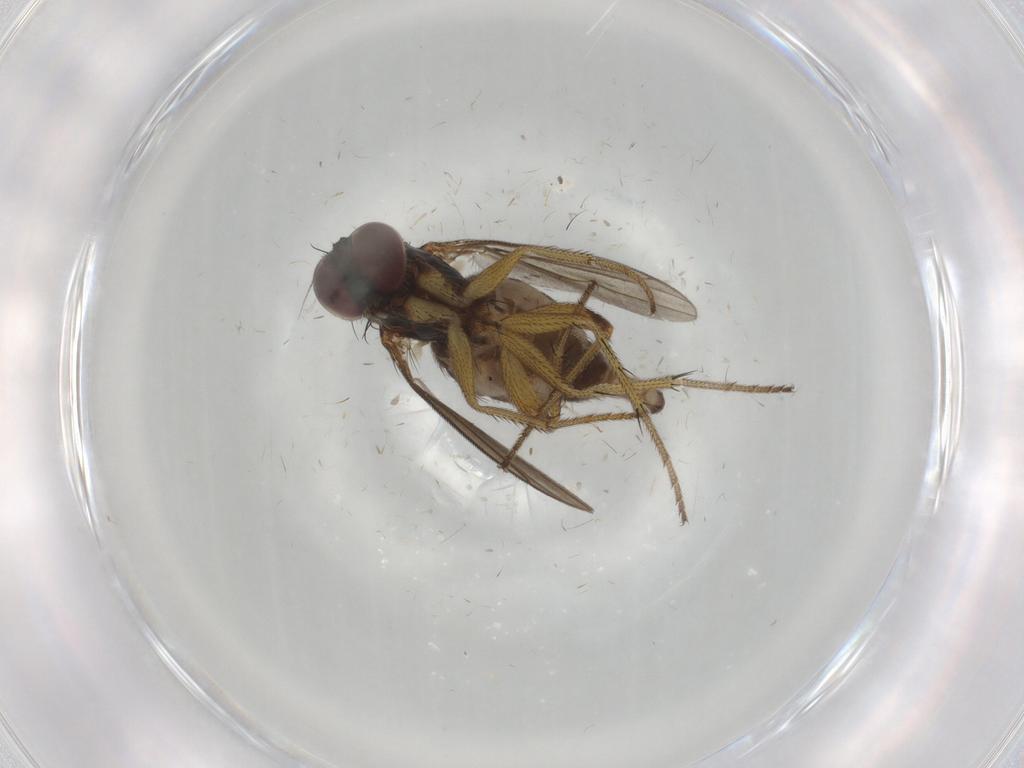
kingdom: Animalia
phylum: Arthropoda
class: Insecta
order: Diptera
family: Dolichopodidae
